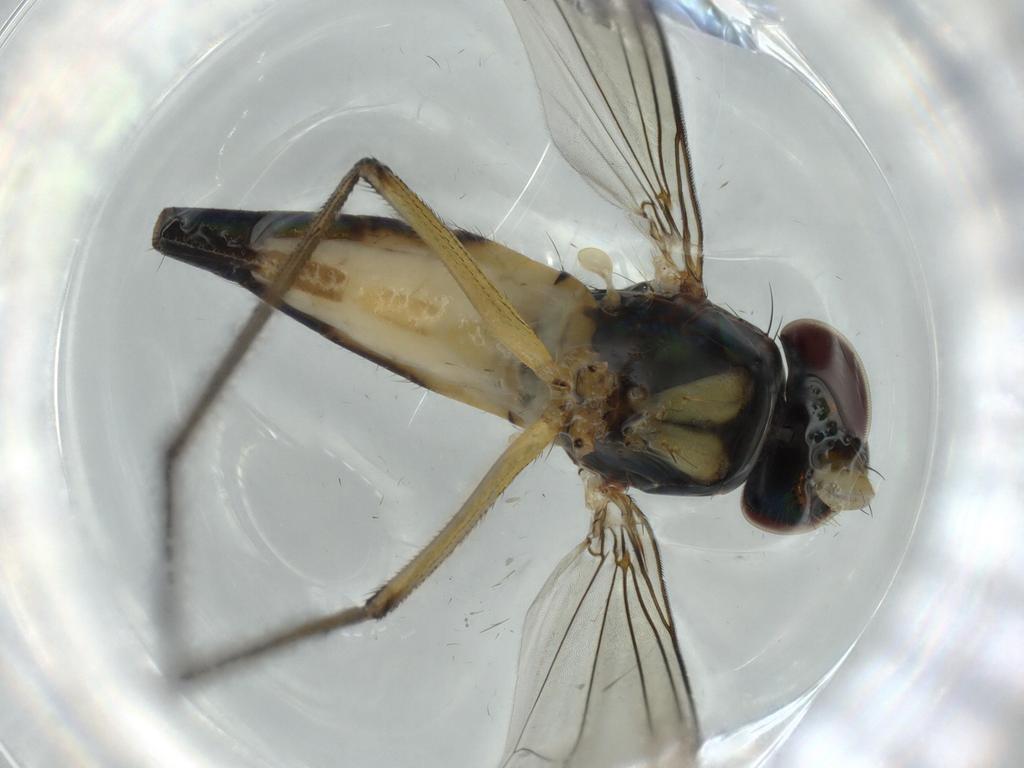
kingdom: Animalia
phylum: Arthropoda
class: Insecta
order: Diptera
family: Dolichopodidae
